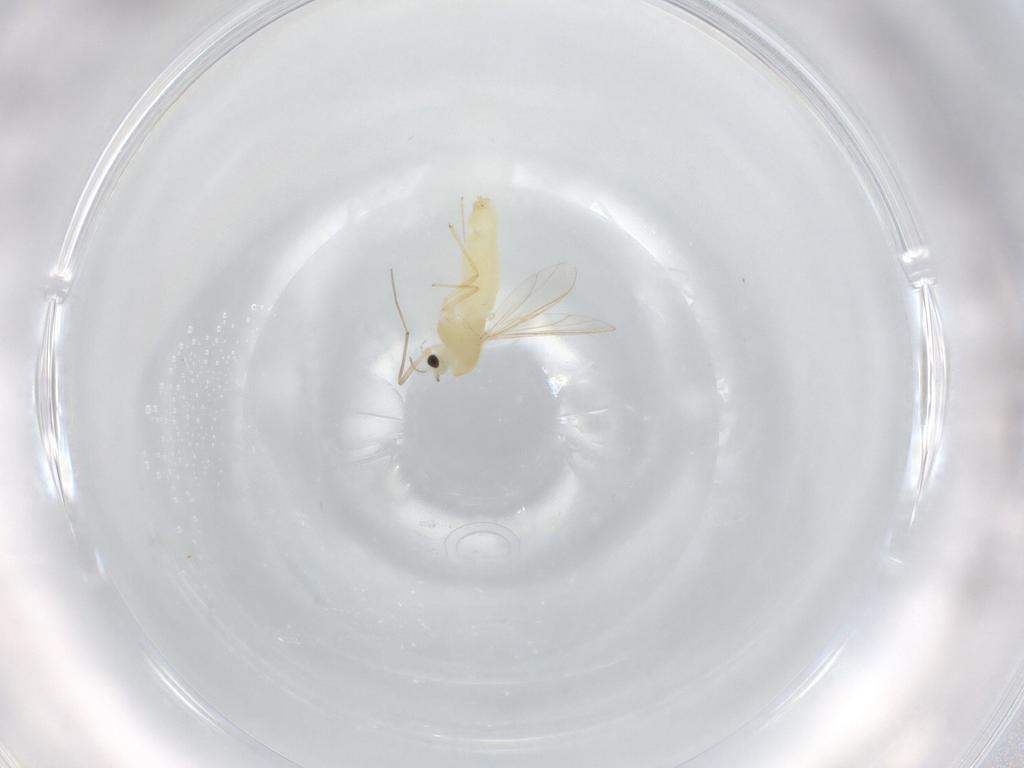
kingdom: Animalia
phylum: Arthropoda
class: Insecta
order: Diptera
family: Chironomidae
